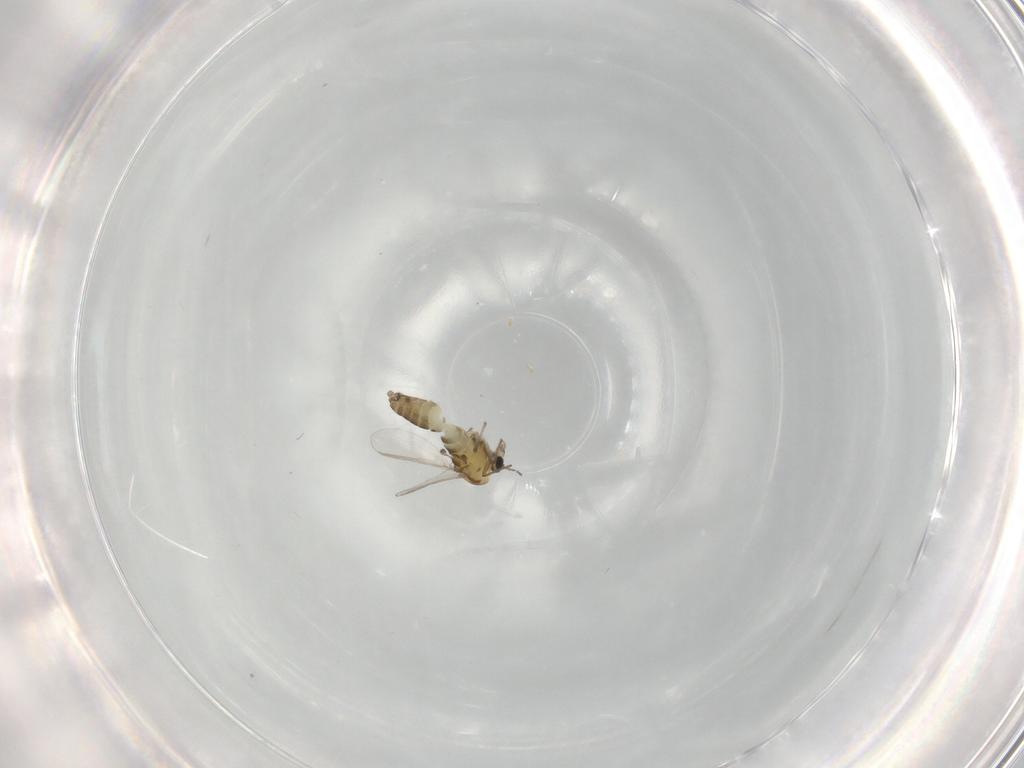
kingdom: Animalia
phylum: Arthropoda
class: Insecta
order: Diptera
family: Chironomidae
